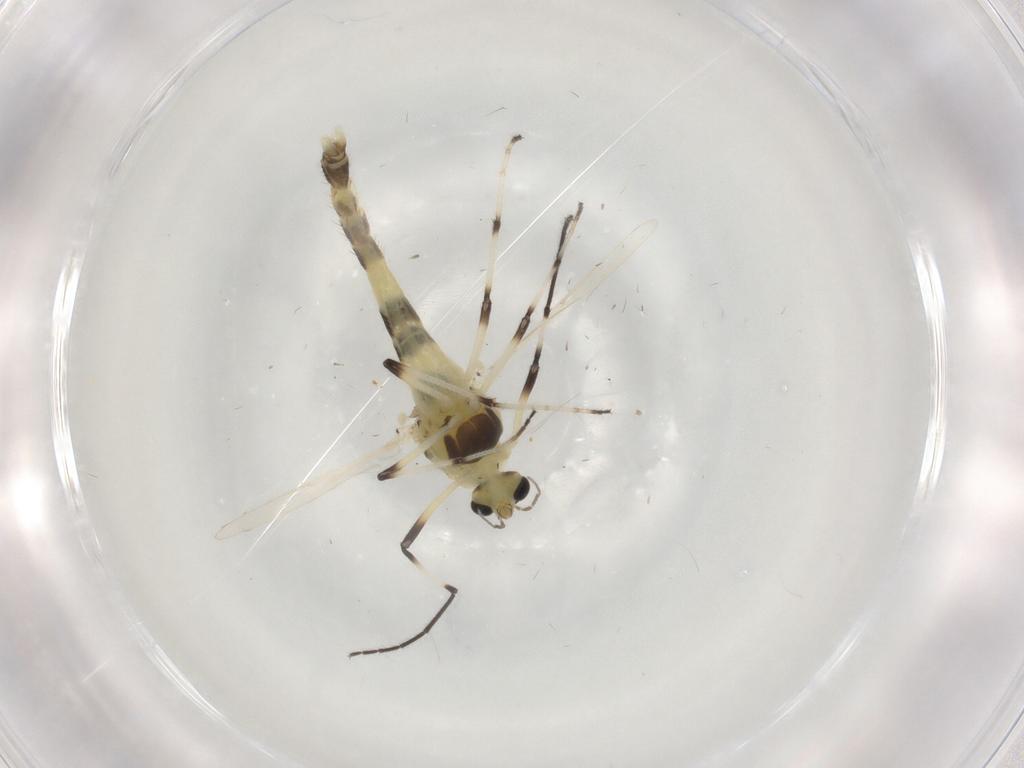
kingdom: Animalia
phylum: Arthropoda
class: Insecta
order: Diptera
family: Chironomidae
